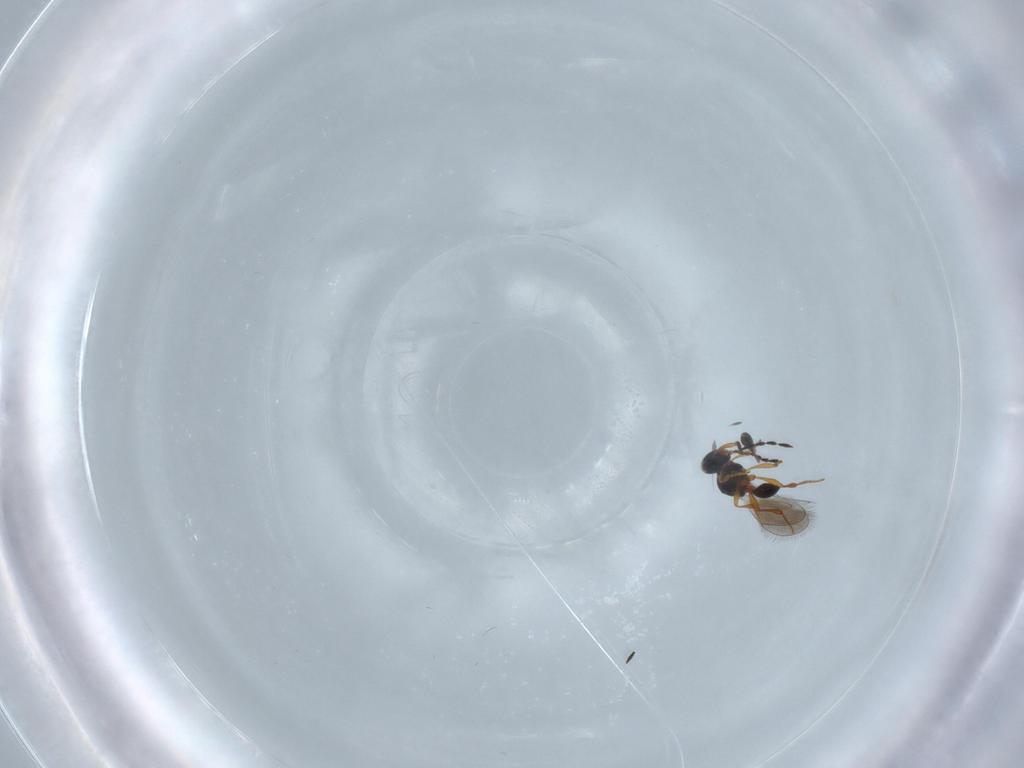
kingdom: Animalia
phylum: Arthropoda
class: Insecta
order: Hymenoptera
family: Platygastridae
